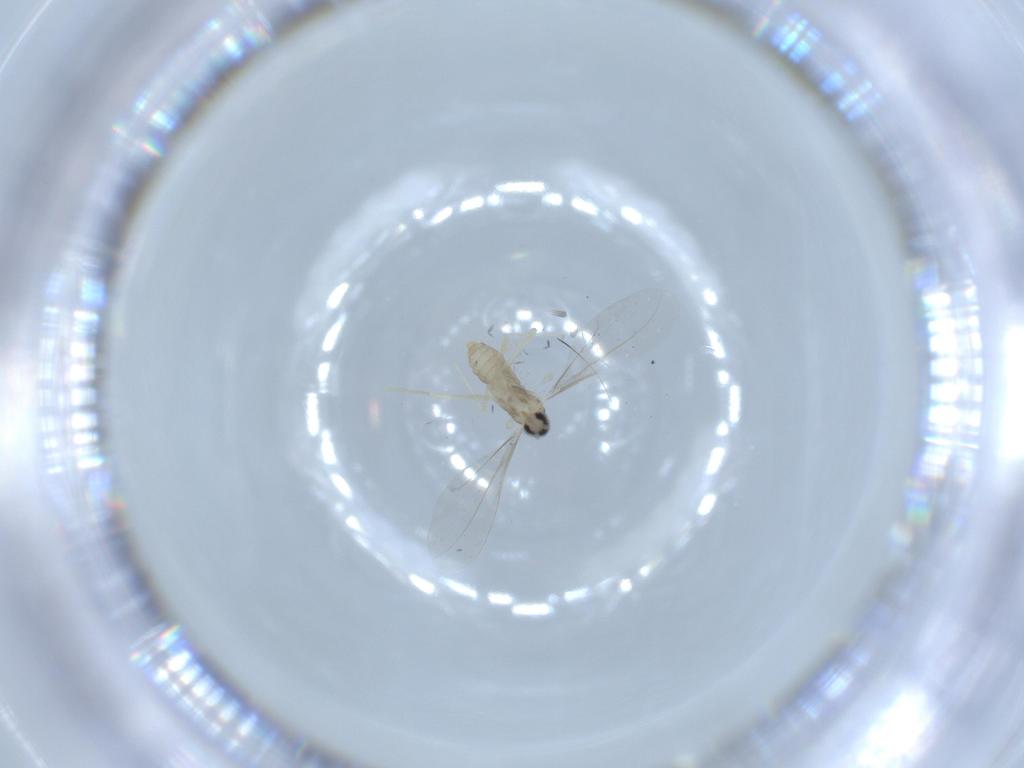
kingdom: Animalia
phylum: Arthropoda
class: Insecta
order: Diptera
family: Cecidomyiidae
